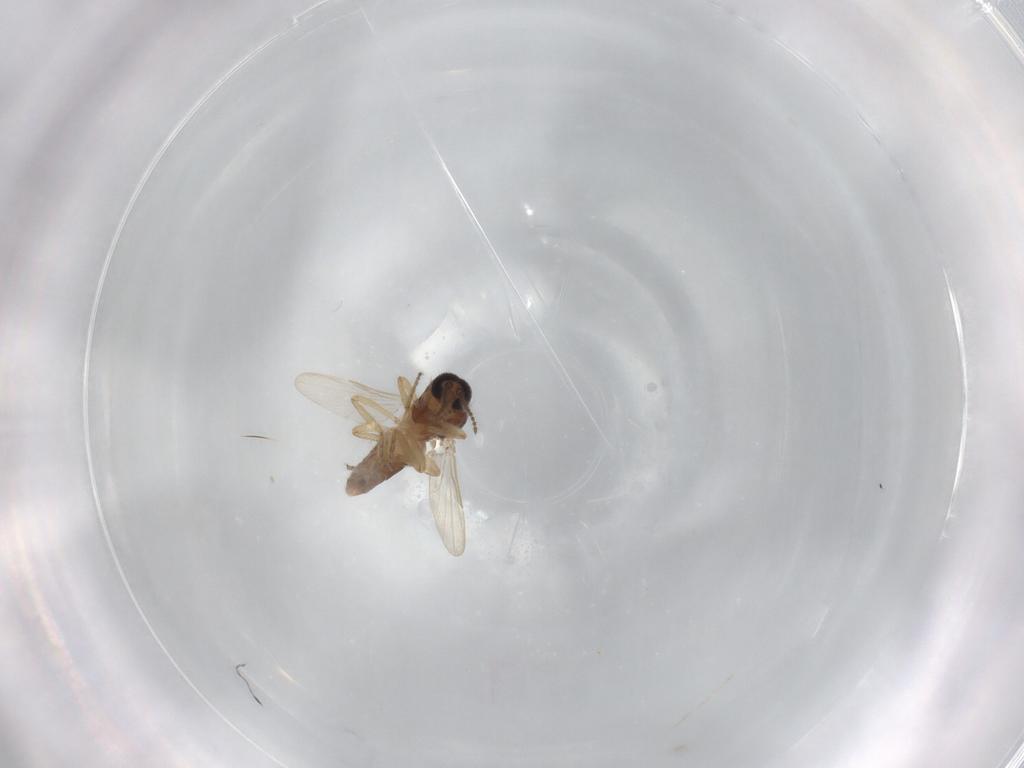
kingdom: Animalia
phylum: Arthropoda
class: Insecta
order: Diptera
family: Ceratopogonidae
